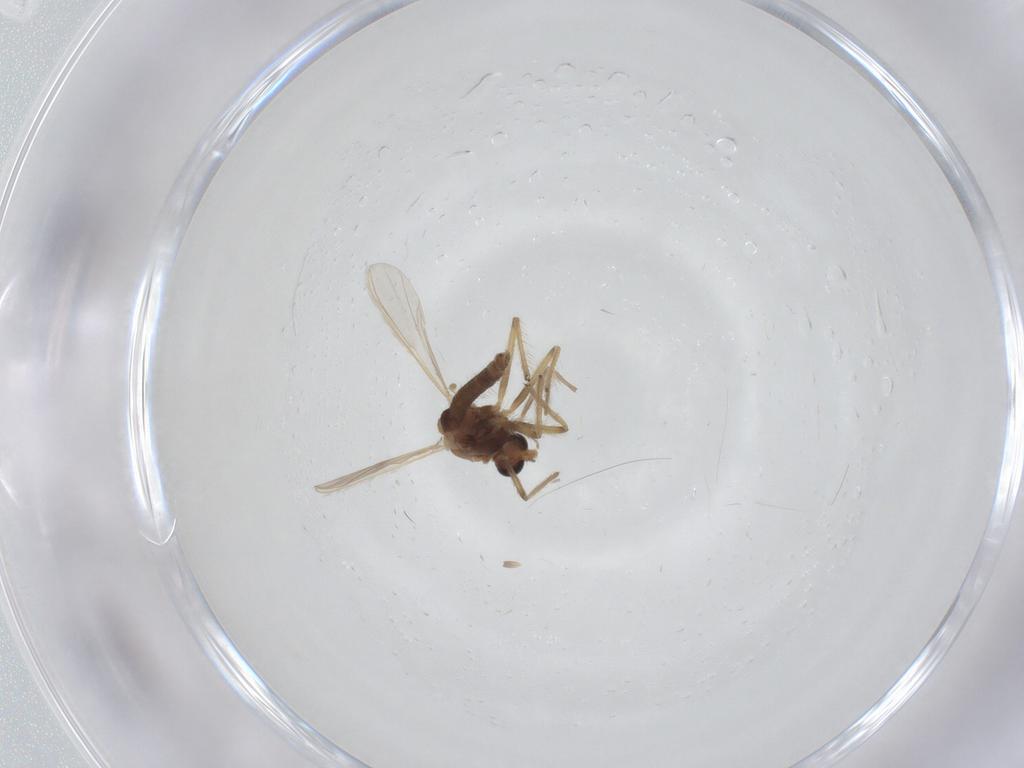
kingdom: Animalia
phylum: Arthropoda
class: Insecta
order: Diptera
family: Chironomidae
